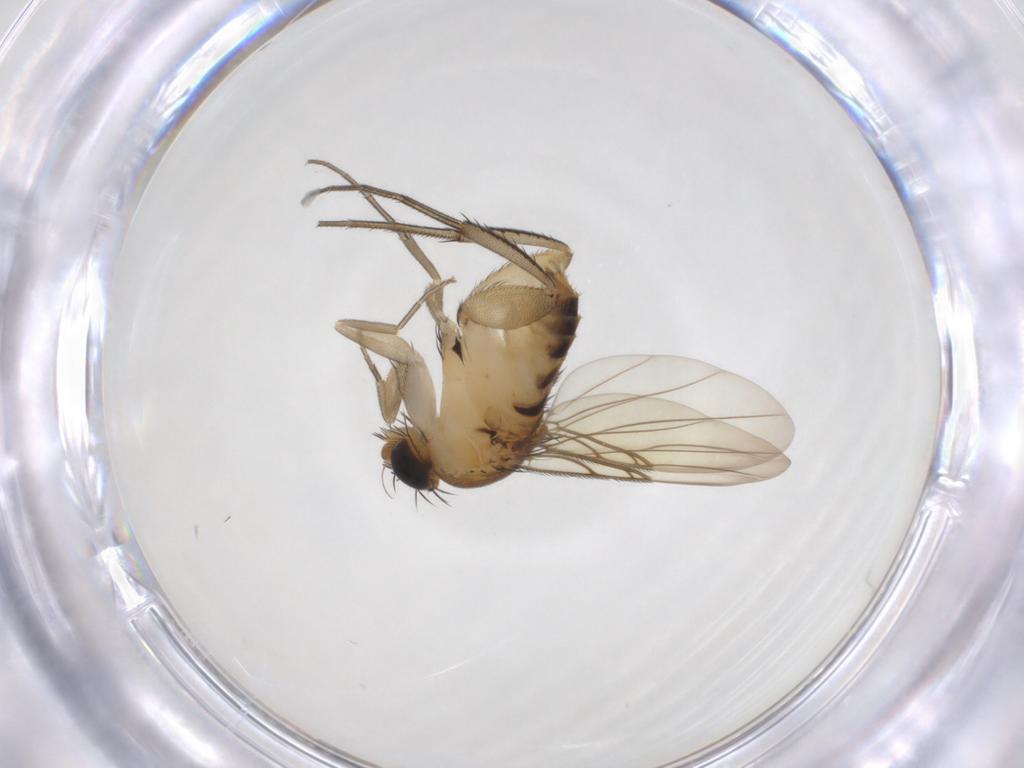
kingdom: Animalia
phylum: Arthropoda
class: Insecta
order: Diptera
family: Phoridae
